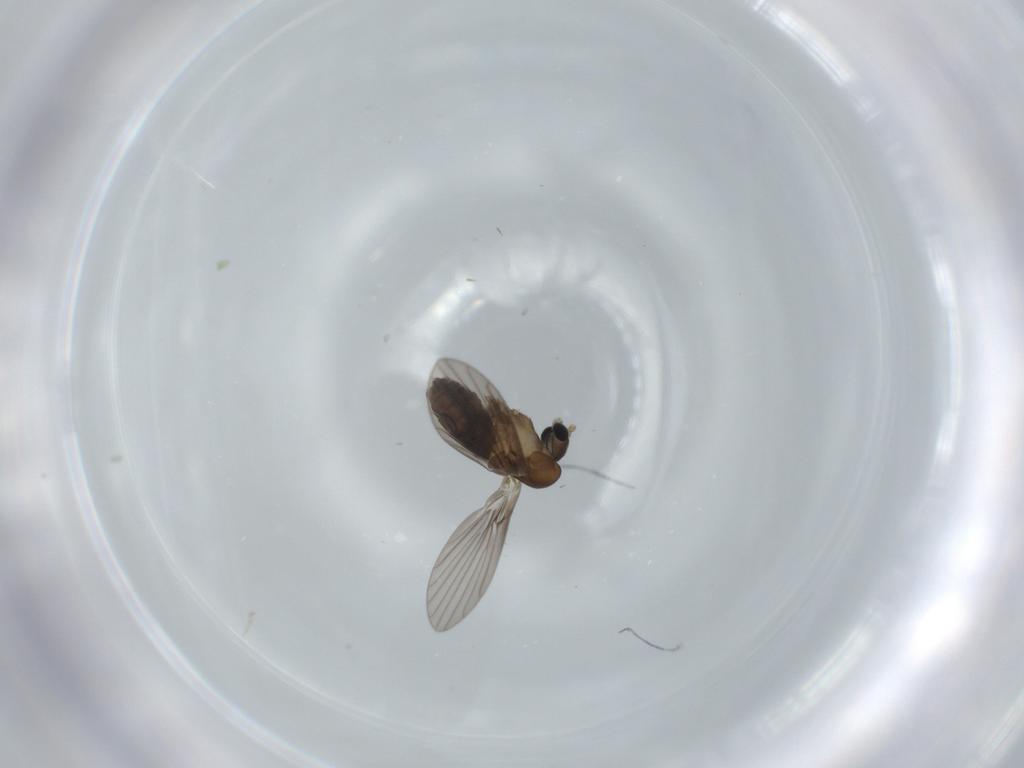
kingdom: Animalia
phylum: Arthropoda
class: Insecta
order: Diptera
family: Psychodidae
